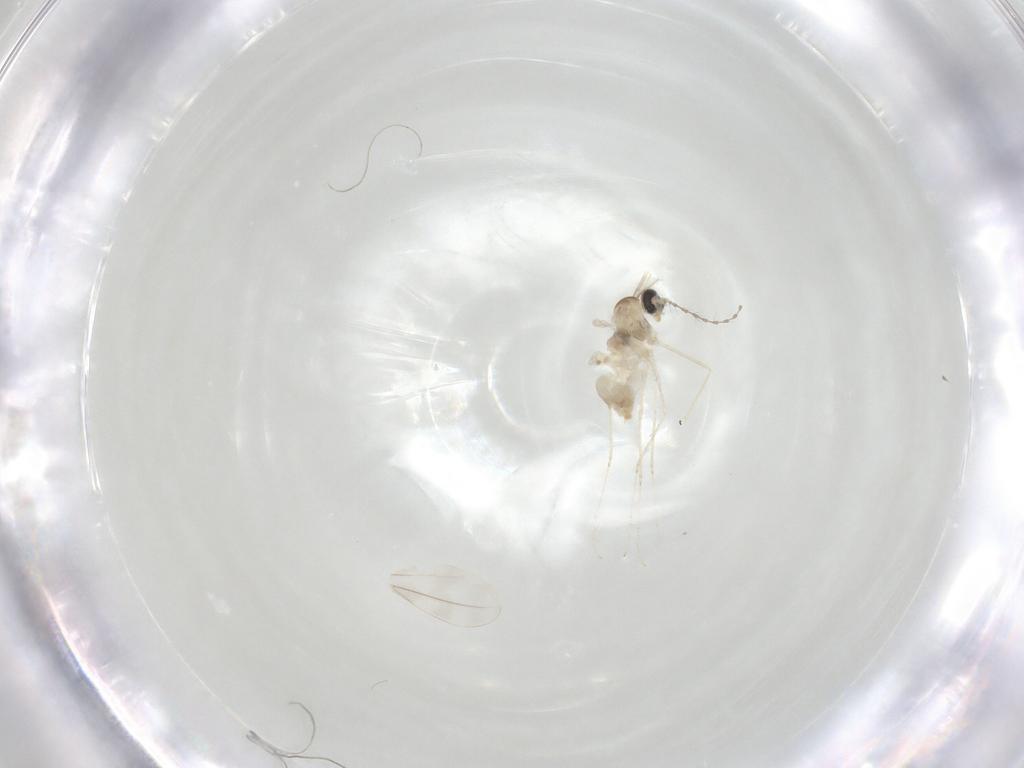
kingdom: Animalia
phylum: Arthropoda
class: Insecta
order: Diptera
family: Cecidomyiidae
